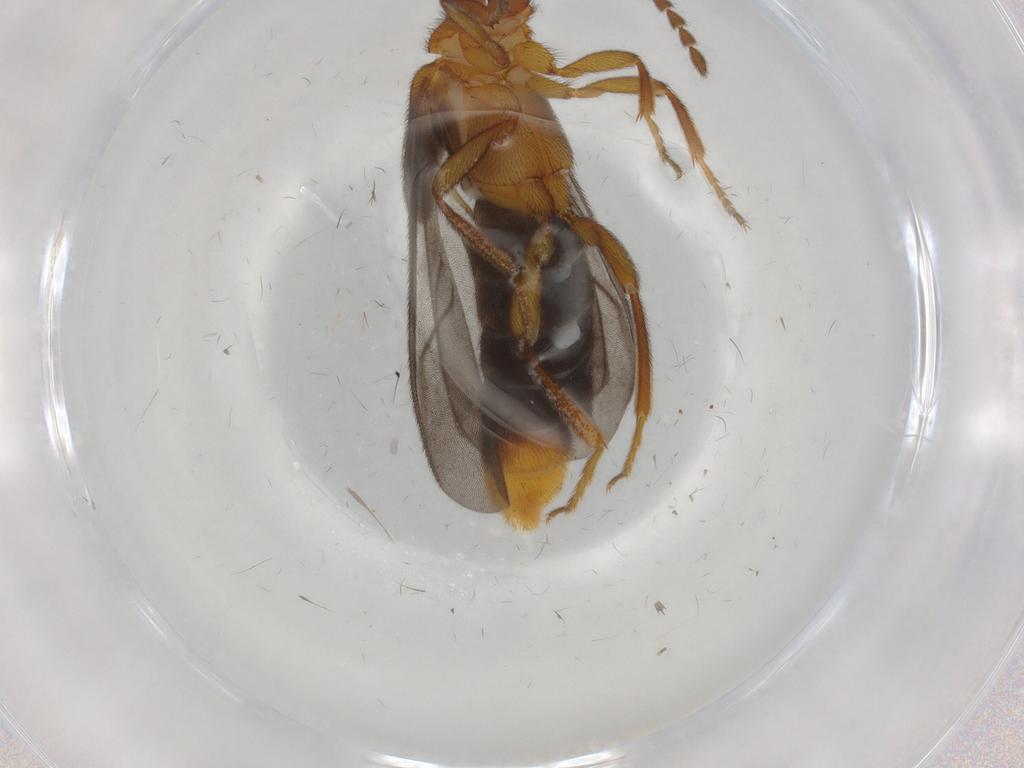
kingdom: Animalia
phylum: Arthropoda
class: Insecta
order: Coleoptera
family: Omethidae
